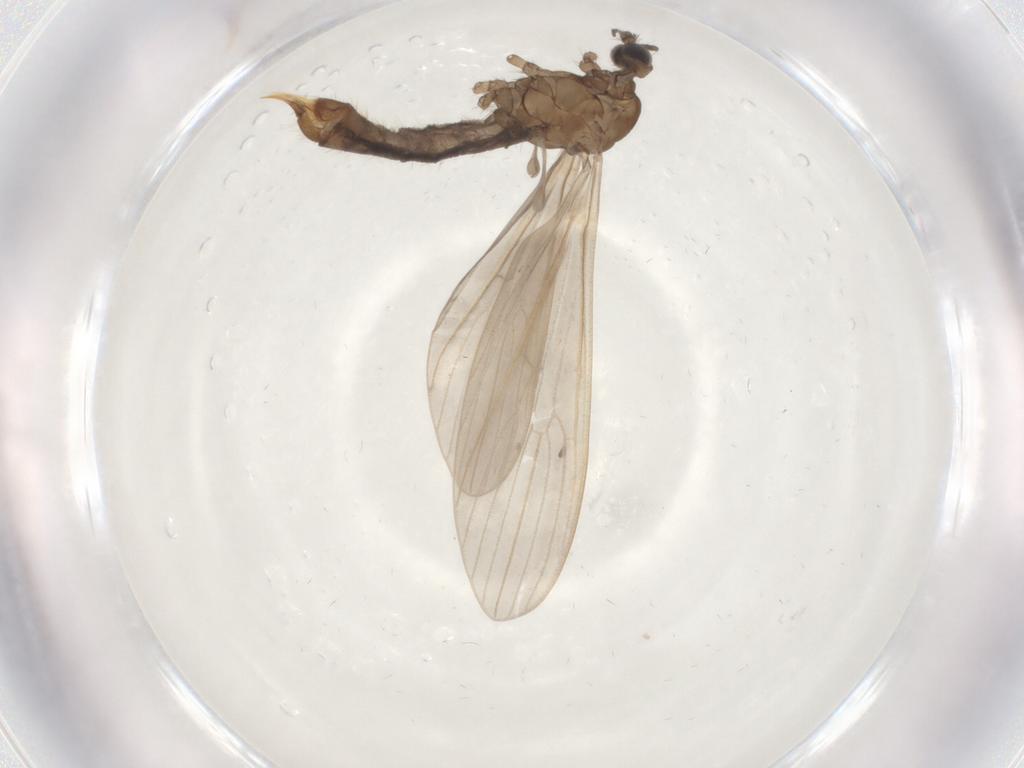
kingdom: Animalia
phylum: Arthropoda
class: Insecta
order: Diptera
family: Limoniidae
